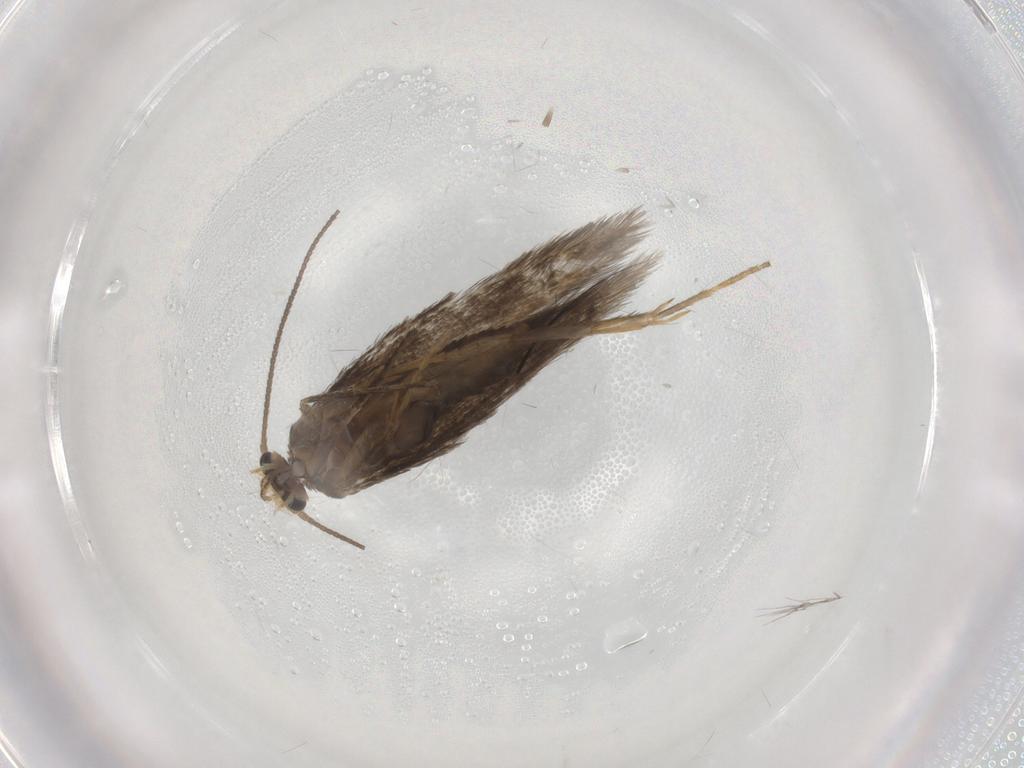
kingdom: Animalia
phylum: Arthropoda
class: Insecta
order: Lepidoptera
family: Nepticulidae
